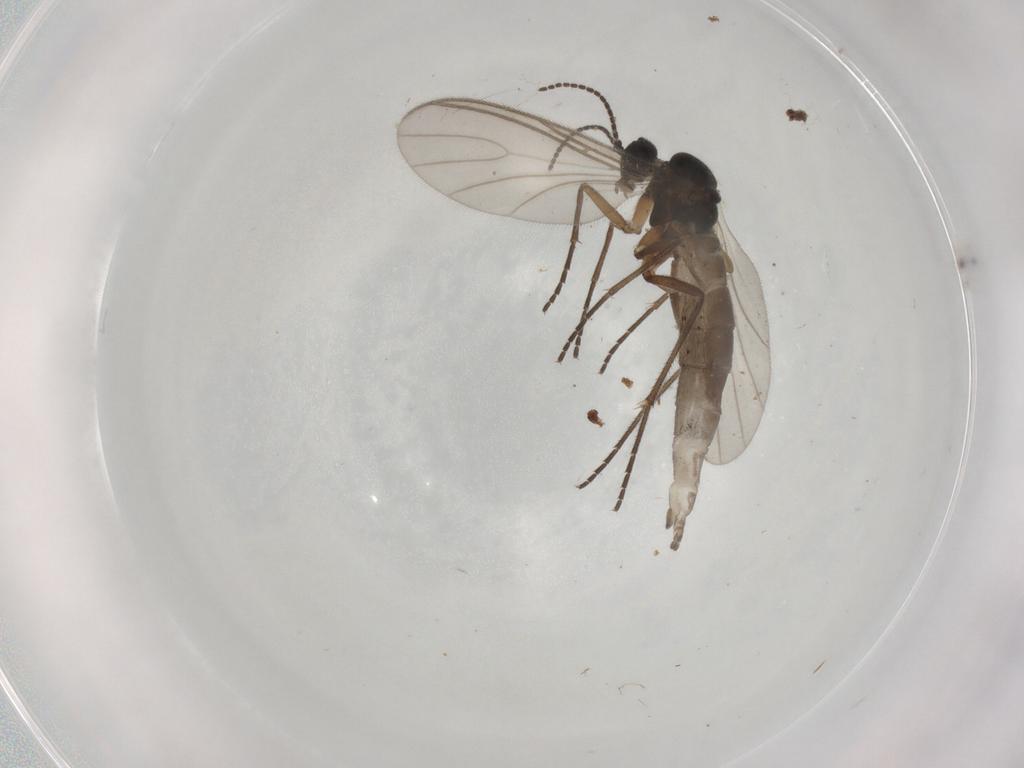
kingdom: Animalia
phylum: Arthropoda
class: Insecta
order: Diptera
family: Sciaridae
